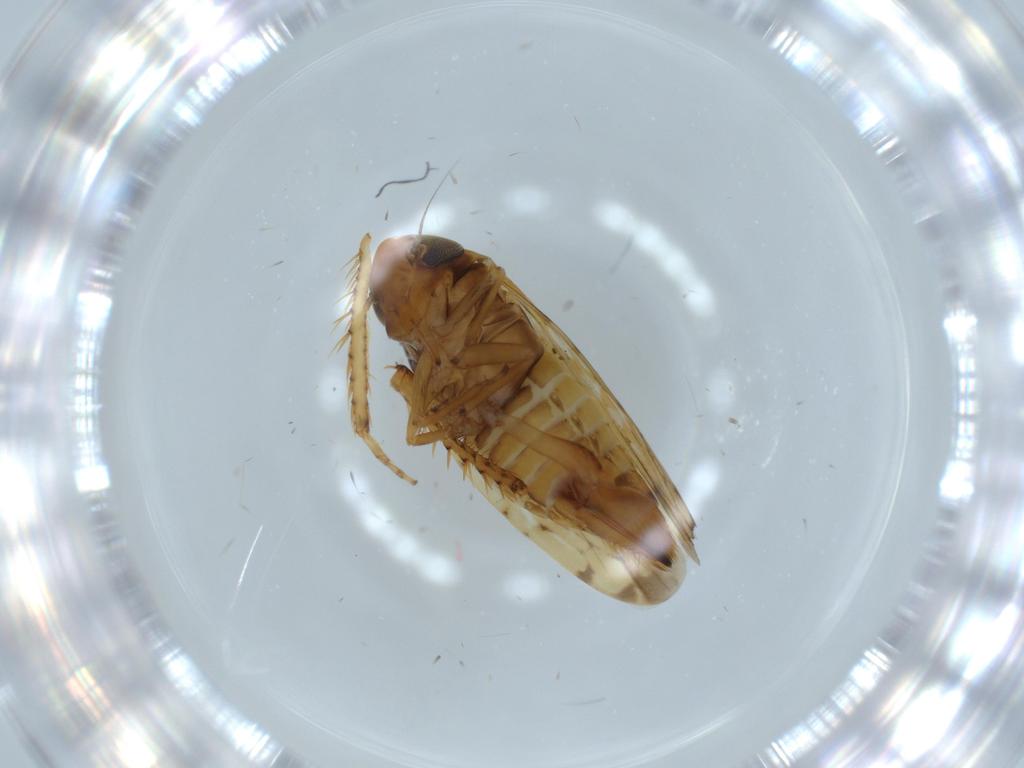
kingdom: Animalia
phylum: Arthropoda
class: Insecta
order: Hemiptera
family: Cicadellidae
